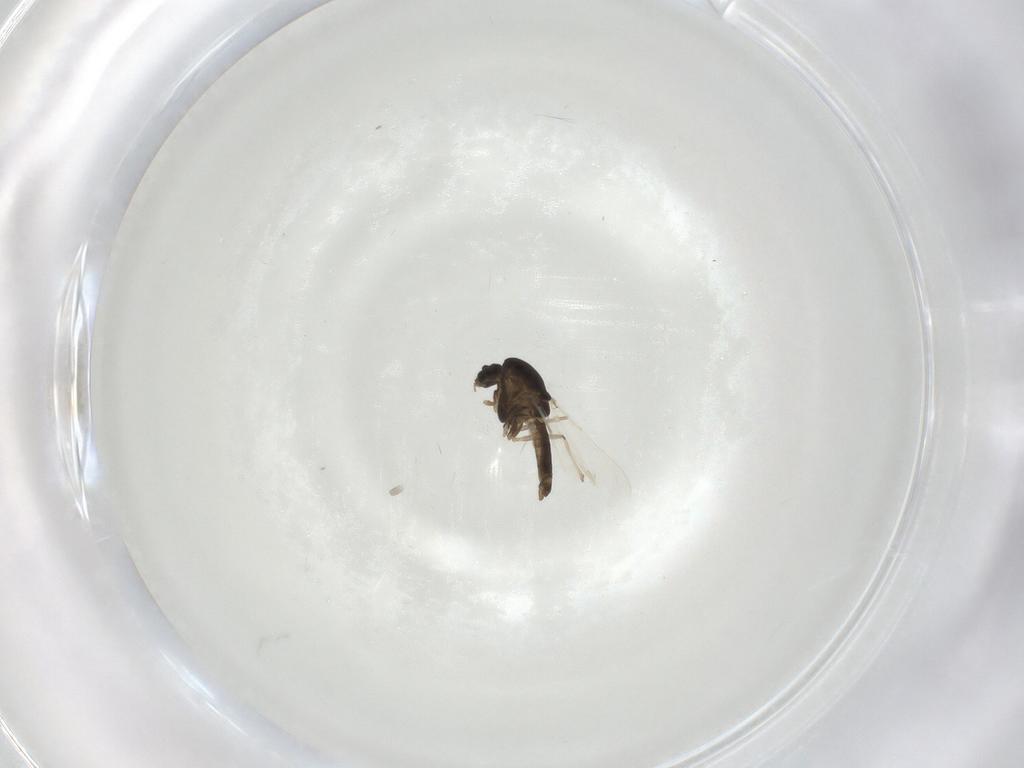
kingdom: Animalia
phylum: Arthropoda
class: Insecta
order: Diptera
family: Chironomidae
